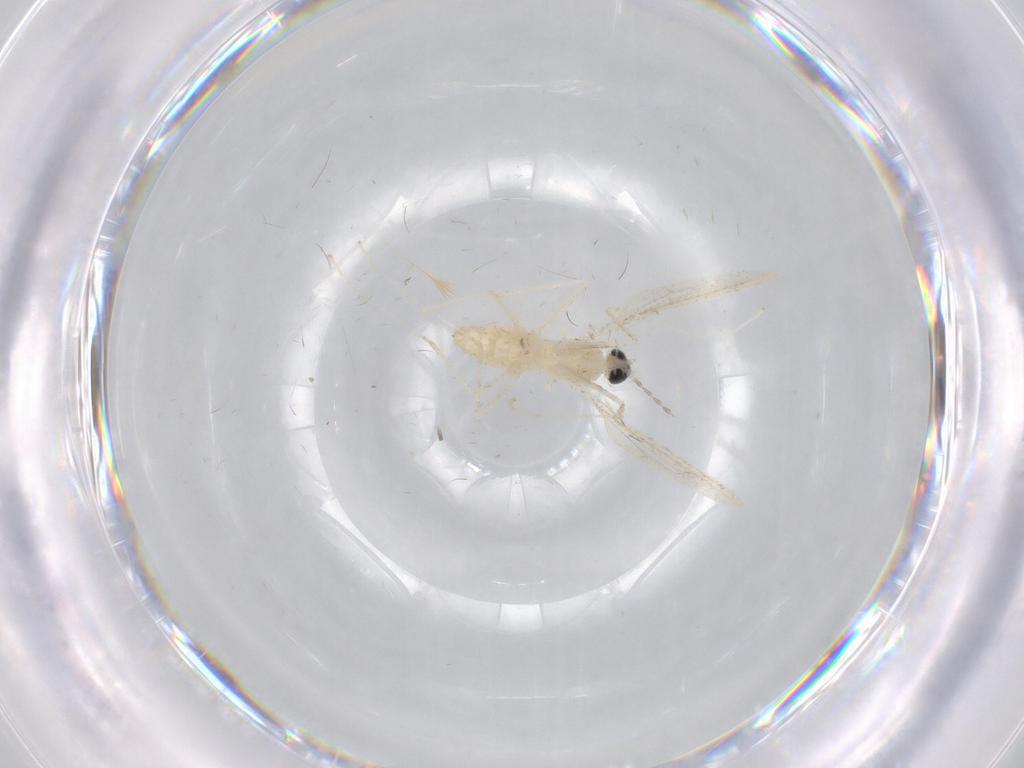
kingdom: Animalia
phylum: Arthropoda
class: Insecta
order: Diptera
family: Cecidomyiidae
